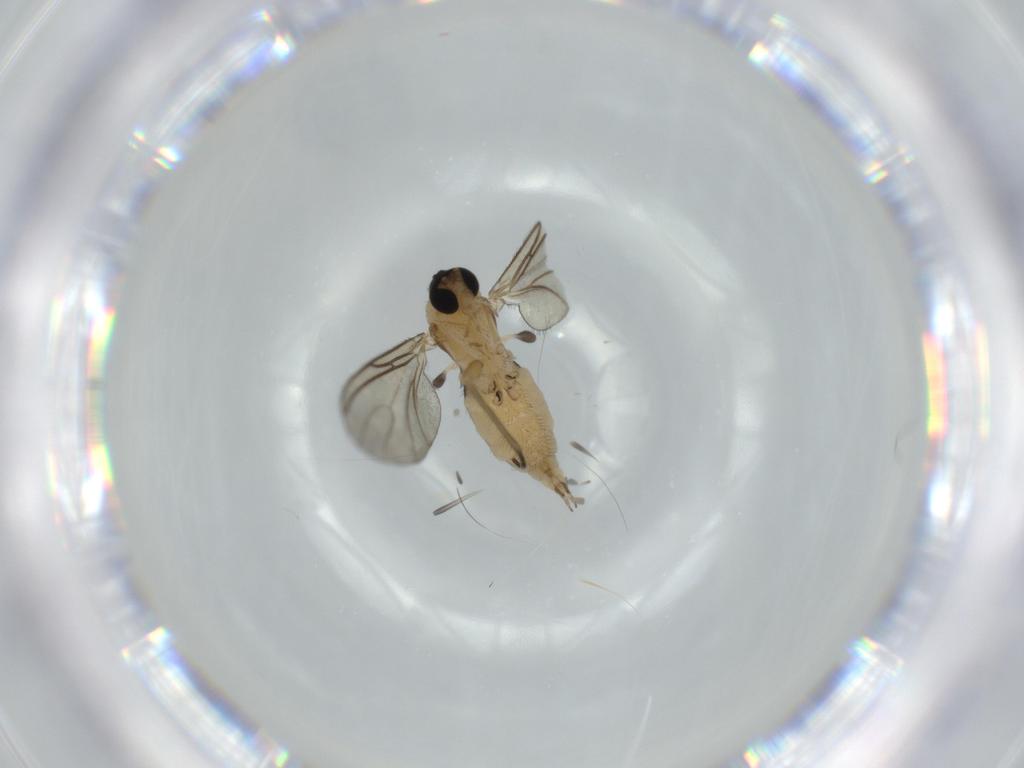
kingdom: Animalia
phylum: Arthropoda
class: Insecta
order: Diptera
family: Sciaridae
